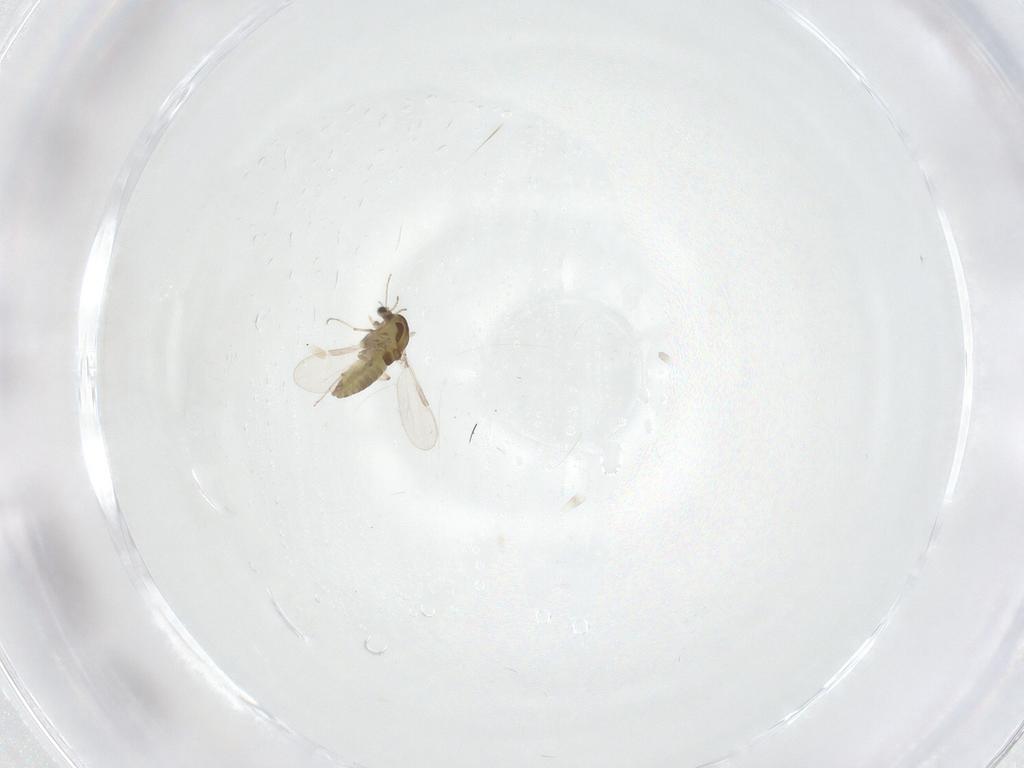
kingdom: Animalia
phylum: Arthropoda
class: Insecta
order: Diptera
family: Chironomidae
